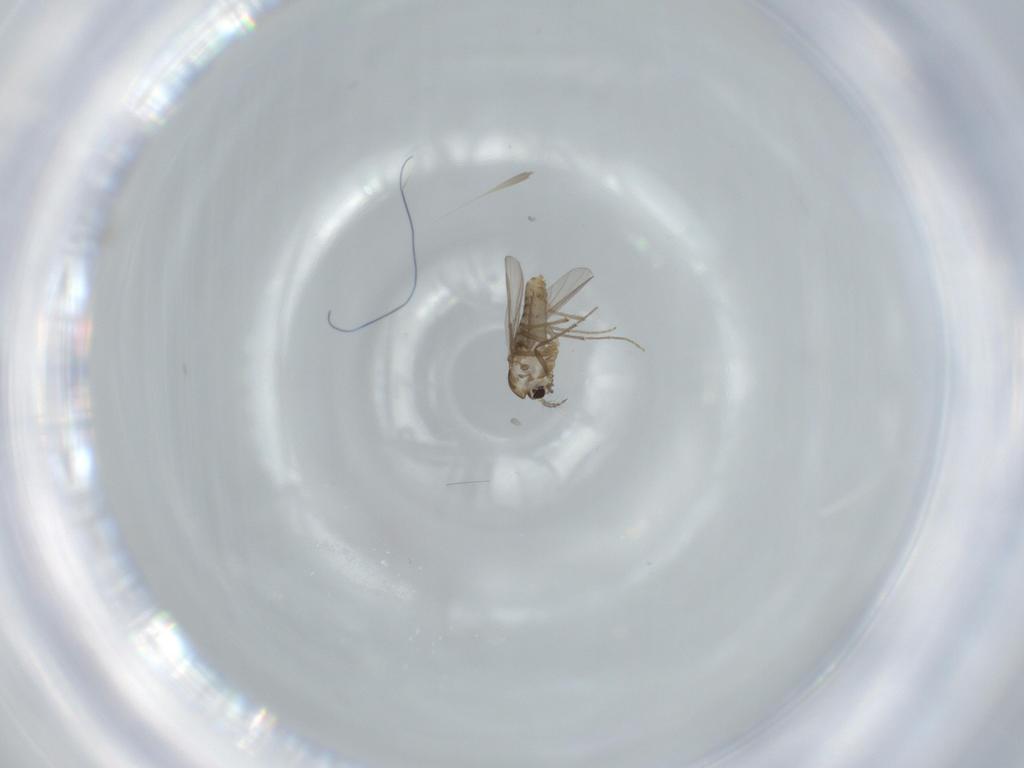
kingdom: Animalia
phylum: Arthropoda
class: Insecta
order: Diptera
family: Chironomidae
